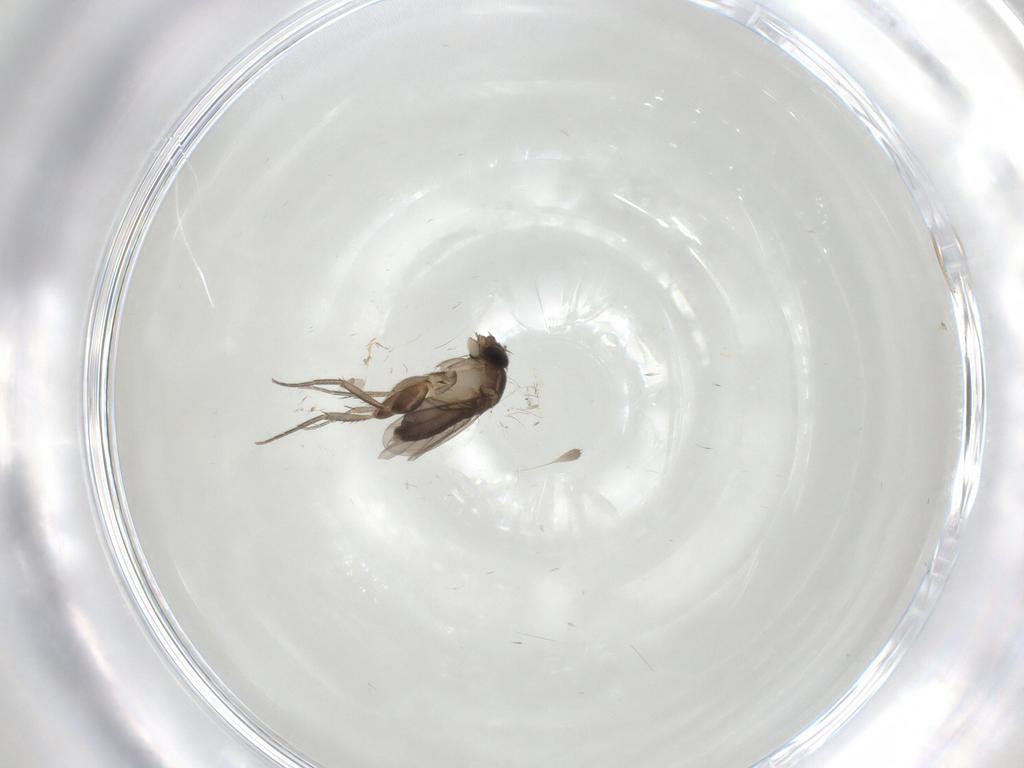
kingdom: Animalia
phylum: Arthropoda
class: Insecta
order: Diptera
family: Phoridae
